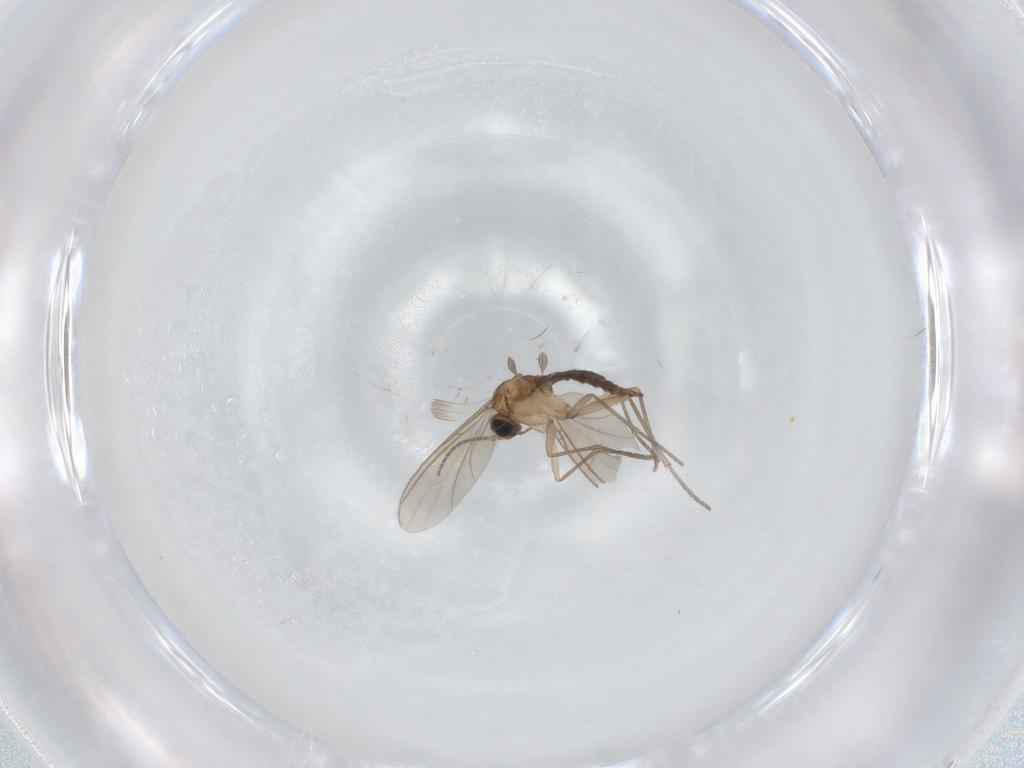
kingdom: Animalia
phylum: Arthropoda
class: Insecta
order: Diptera
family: Sciaridae
